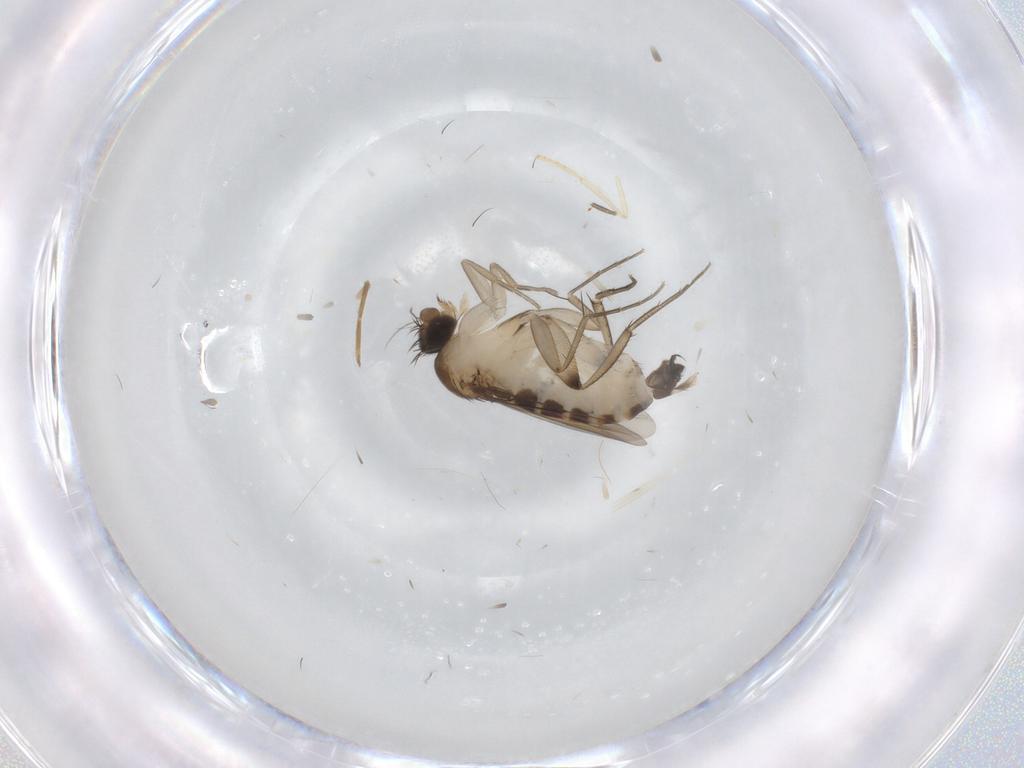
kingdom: Animalia
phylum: Arthropoda
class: Insecta
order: Diptera
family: Phoridae
